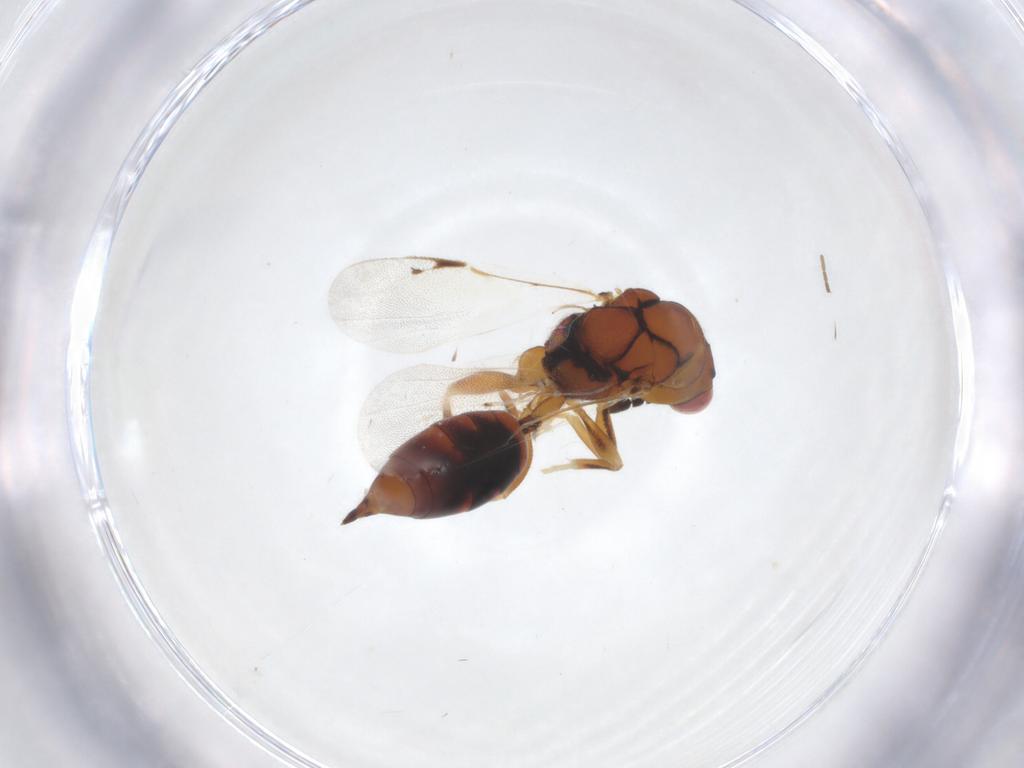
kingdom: Animalia
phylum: Arthropoda
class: Insecta
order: Hymenoptera
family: Eurytomidae
